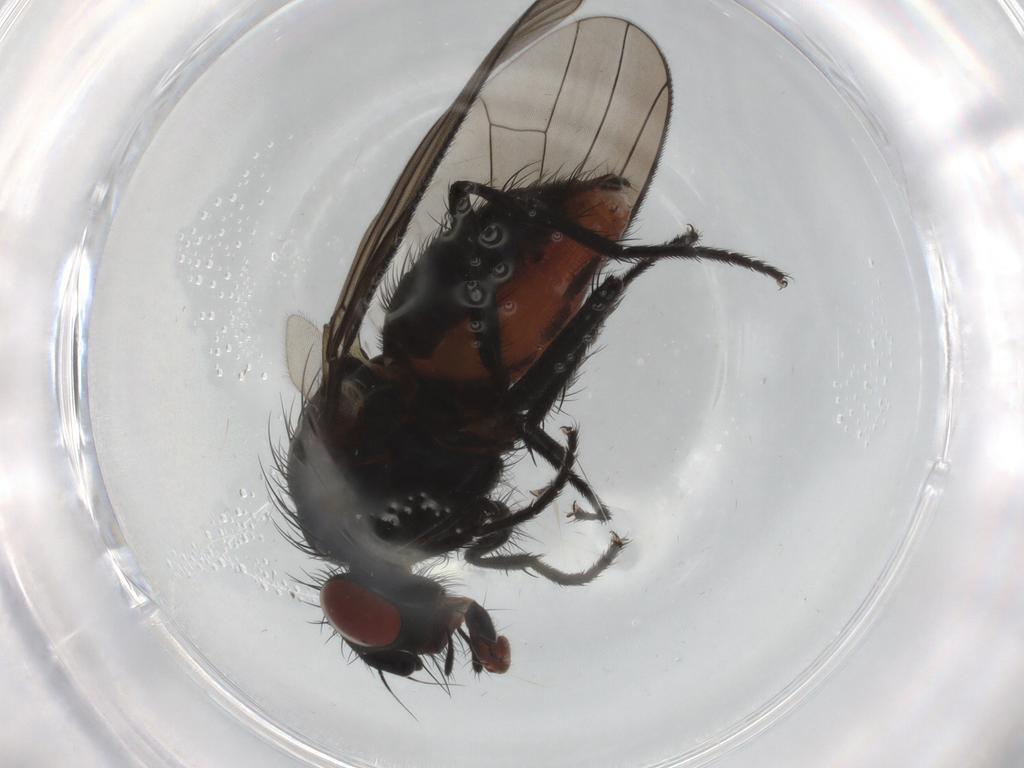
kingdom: Animalia
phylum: Arthropoda
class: Insecta
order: Diptera
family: Anthomyiidae
